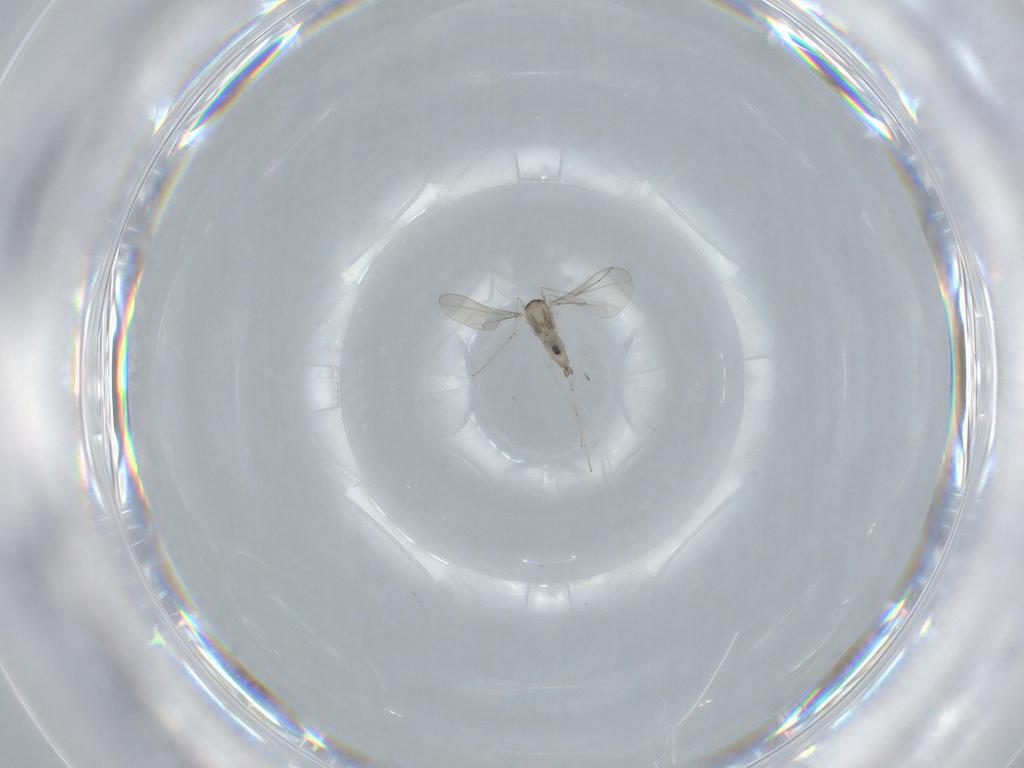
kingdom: Animalia
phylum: Arthropoda
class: Insecta
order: Diptera
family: Cecidomyiidae
